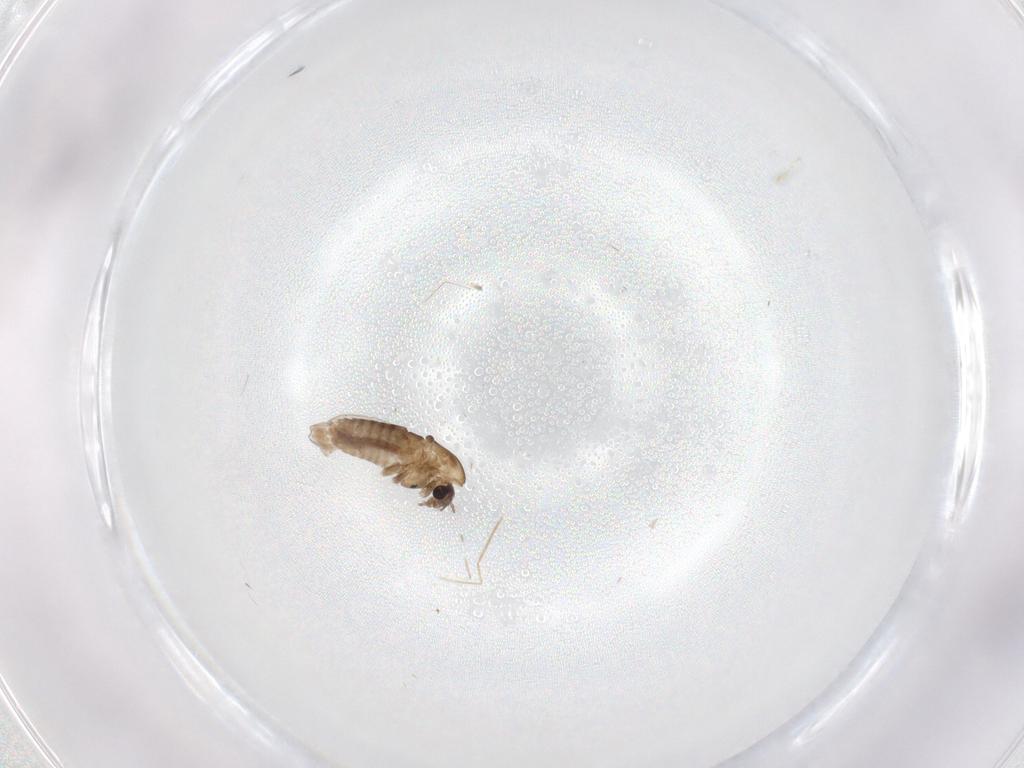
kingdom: Animalia
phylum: Arthropoda
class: Insecta
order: Diptera
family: Chironomidae
